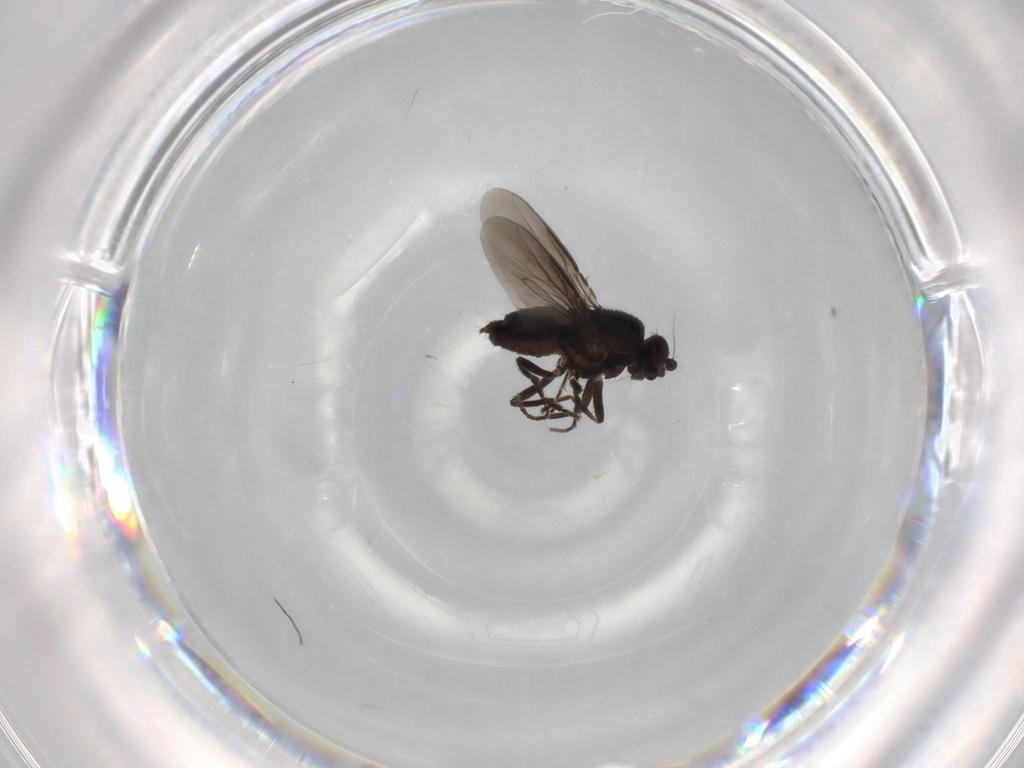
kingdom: Animalia
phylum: Arthropoda
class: Insecta
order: Diptera
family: Sphaeroceridae
